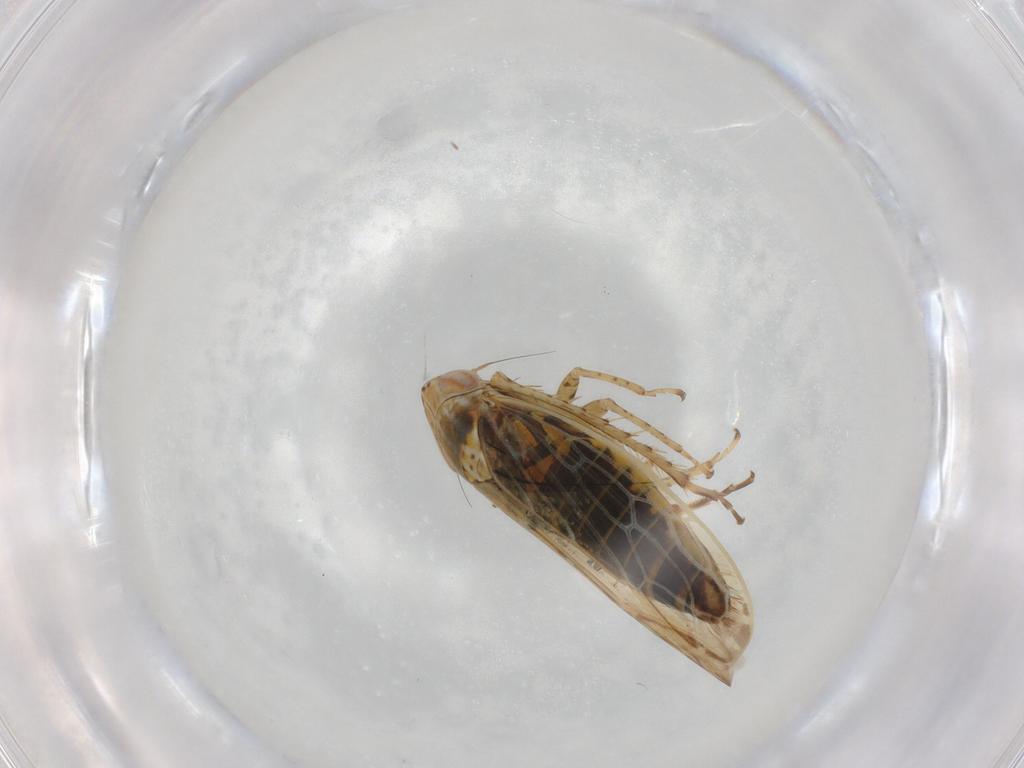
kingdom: Animalia
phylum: Arthropoda
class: Insecta
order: Hemiptera
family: Cicadellidae
